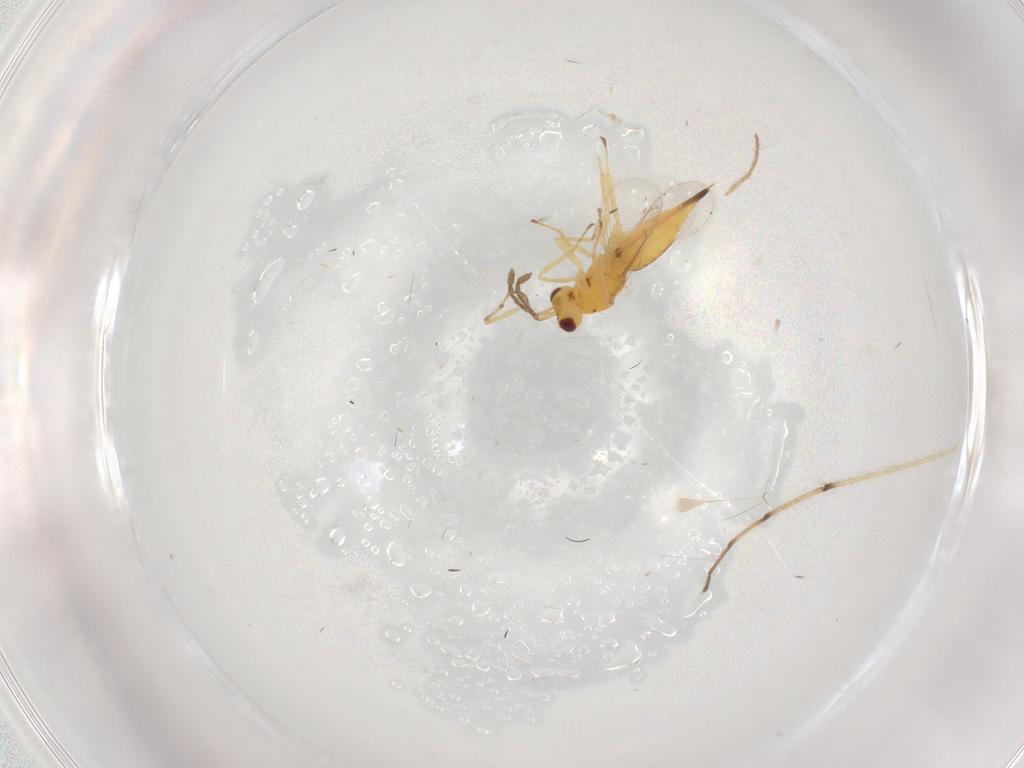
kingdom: Animalia
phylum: Arthropoda
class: Insecta
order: Hymenoptera
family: Eulophidae
